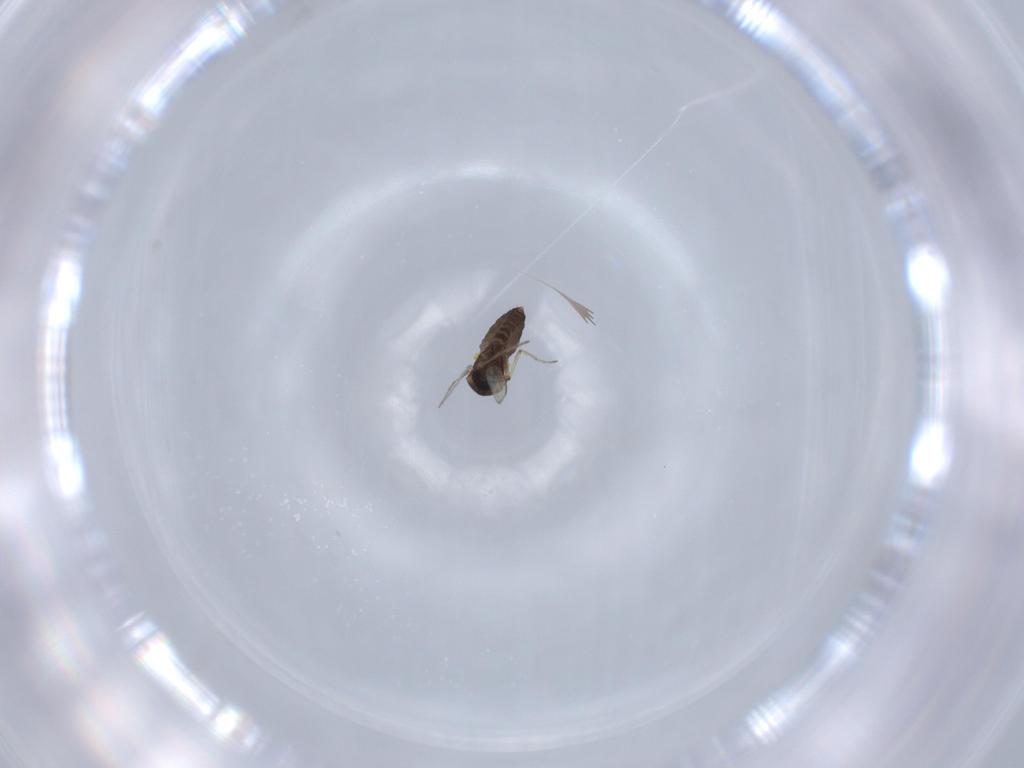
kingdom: Animalia
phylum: Arthropoda
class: Insecta
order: Diptera
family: Ceratopogonidae
